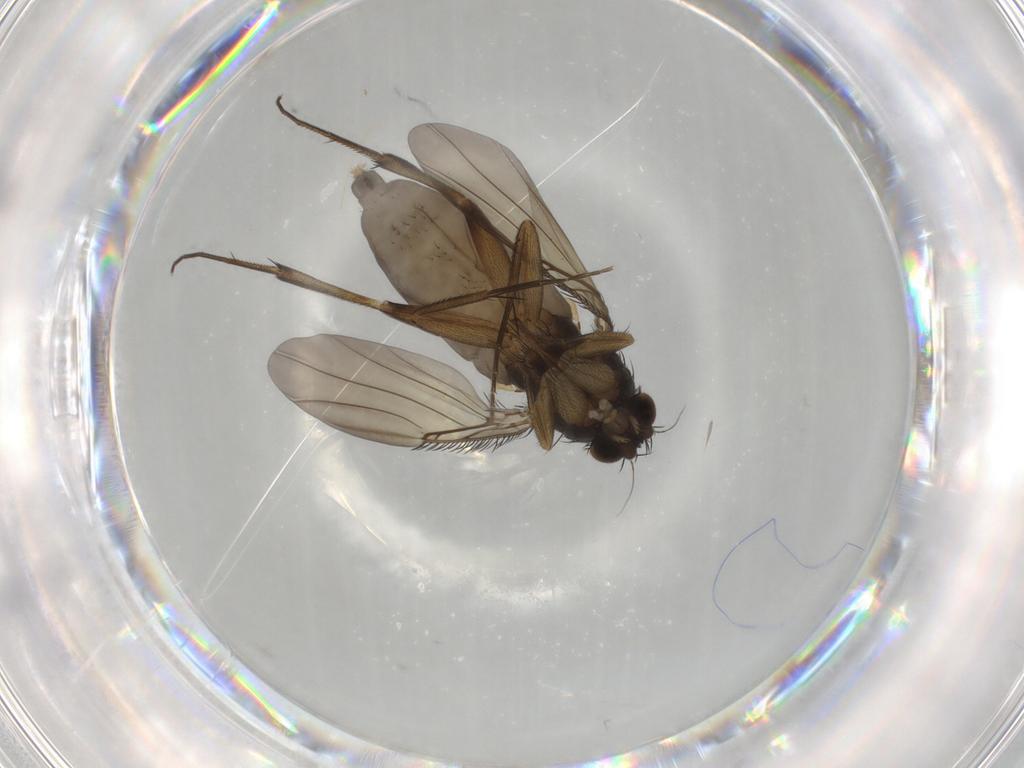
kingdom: Animalia
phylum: Arthropoda
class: Insecta
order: Diptera
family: Phoridae
